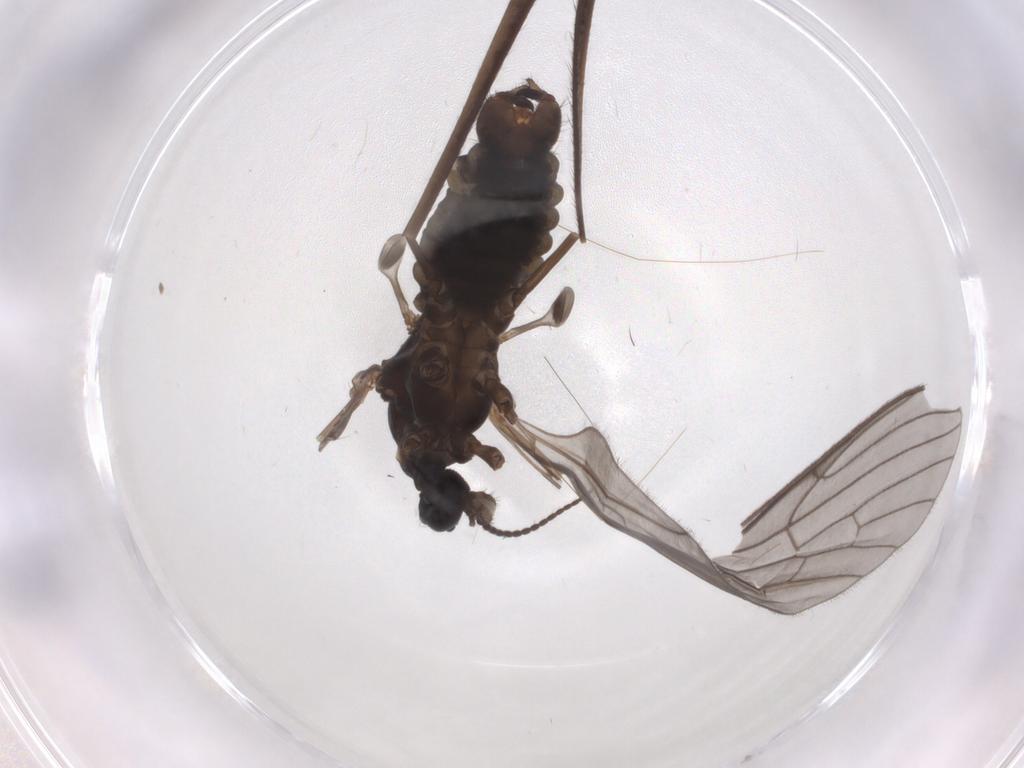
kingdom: Animalia
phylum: Arthropoda
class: Insecta
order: Diptera
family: Limoniidae
